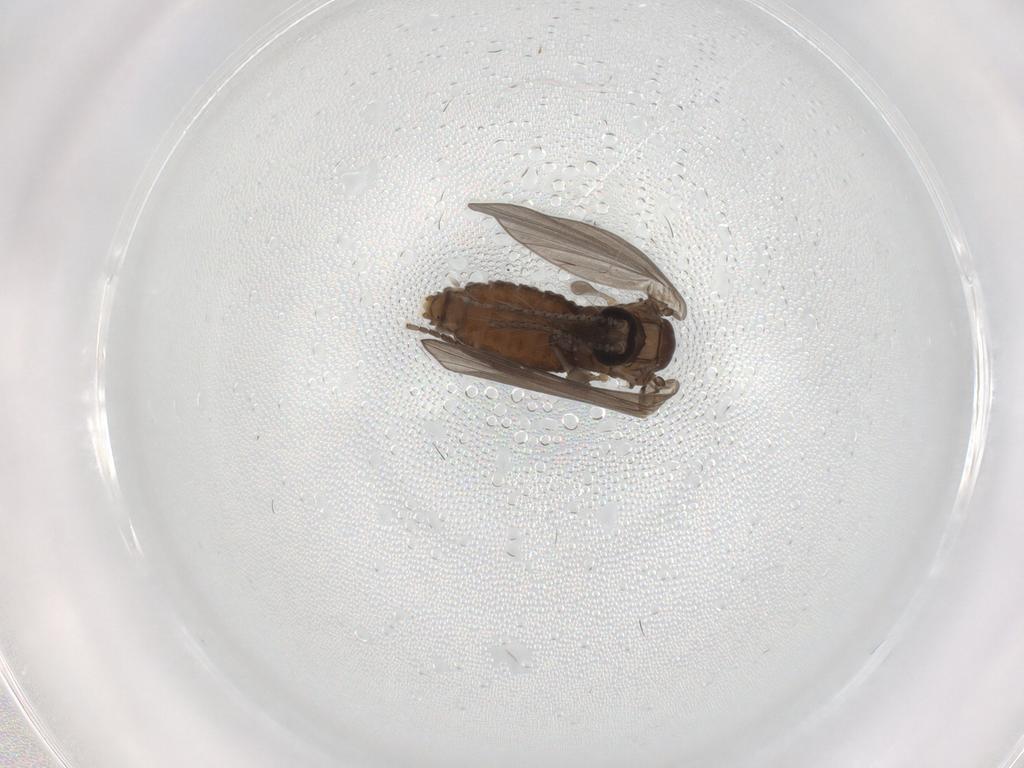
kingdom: Animalia
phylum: Arthropoda
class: Insecta
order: Diptera
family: Psychodidae
